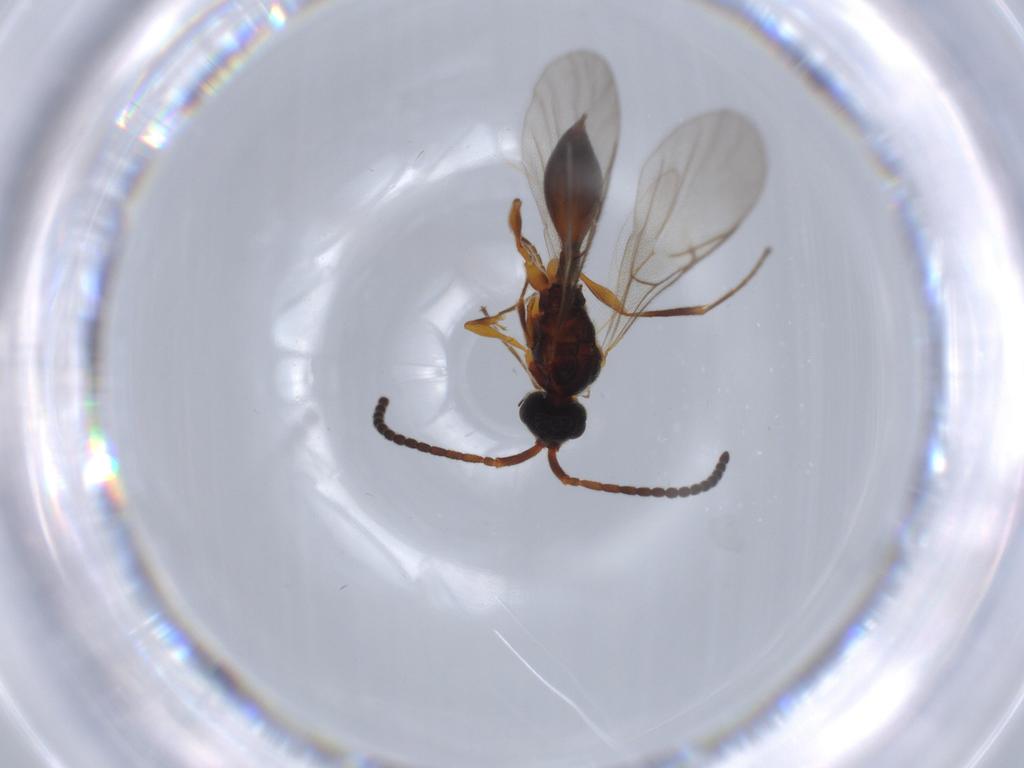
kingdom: Animalia
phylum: Arthropoda
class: Insecta
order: Hymenoptera
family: Diapriidae
